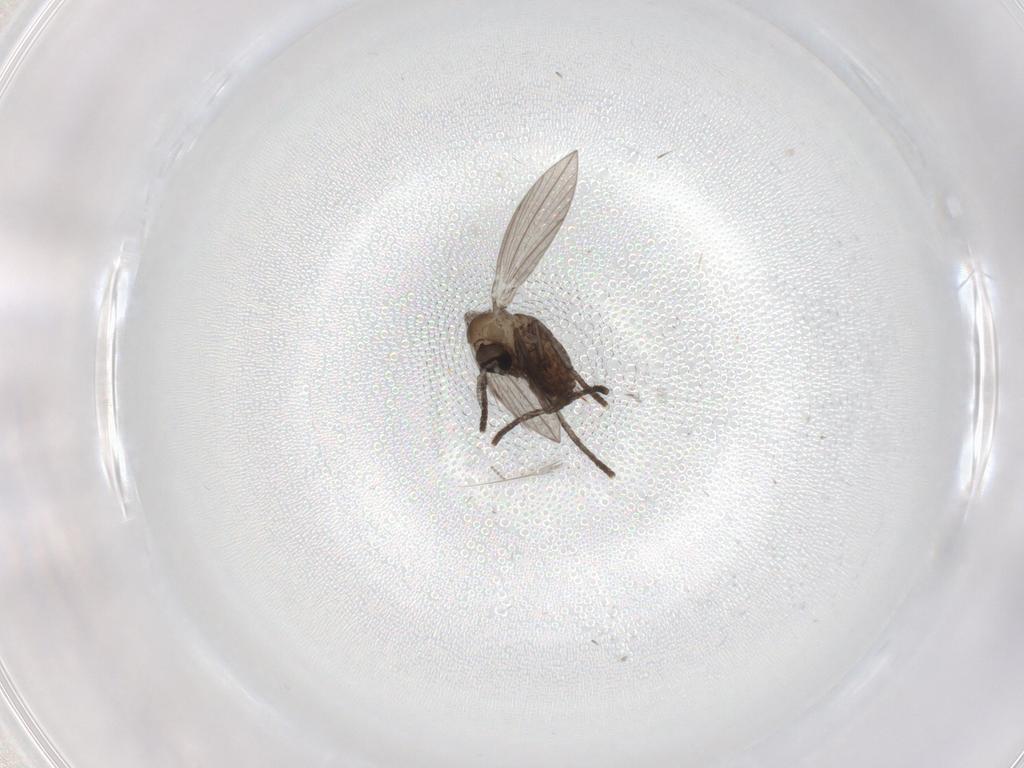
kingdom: Animalia
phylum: Arthropoda
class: Insecta
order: Diptera
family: Psychodidae
